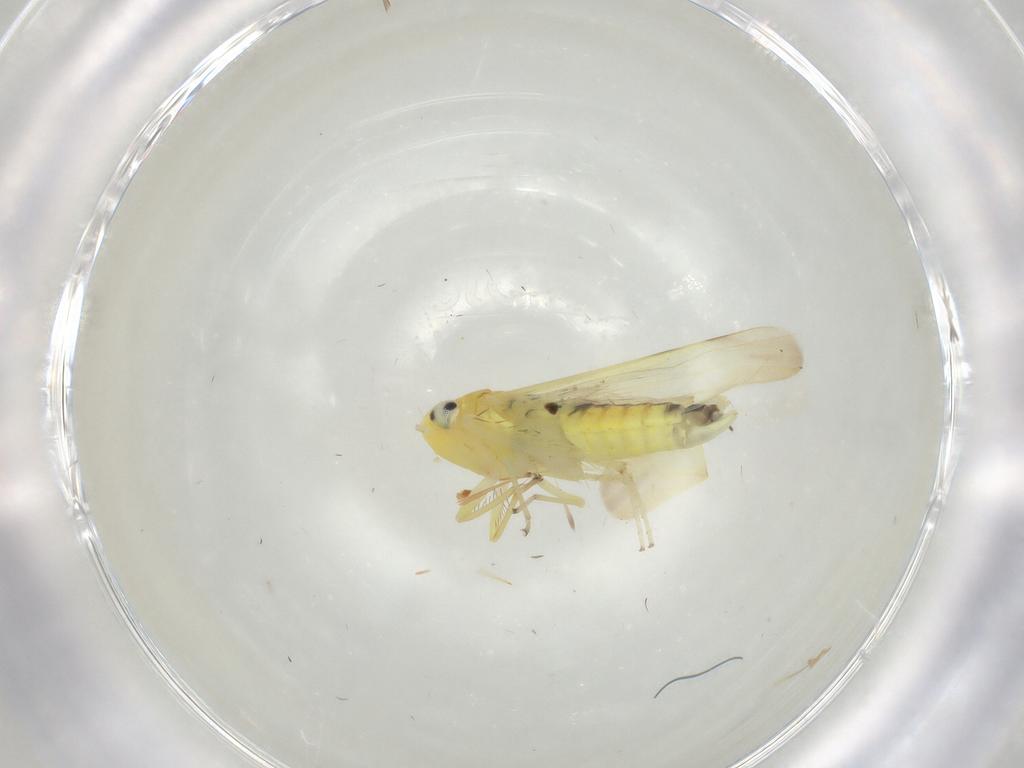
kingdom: Animalia
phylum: Arthropoda
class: Insecta
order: Hemiptera
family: Cicadellidae
